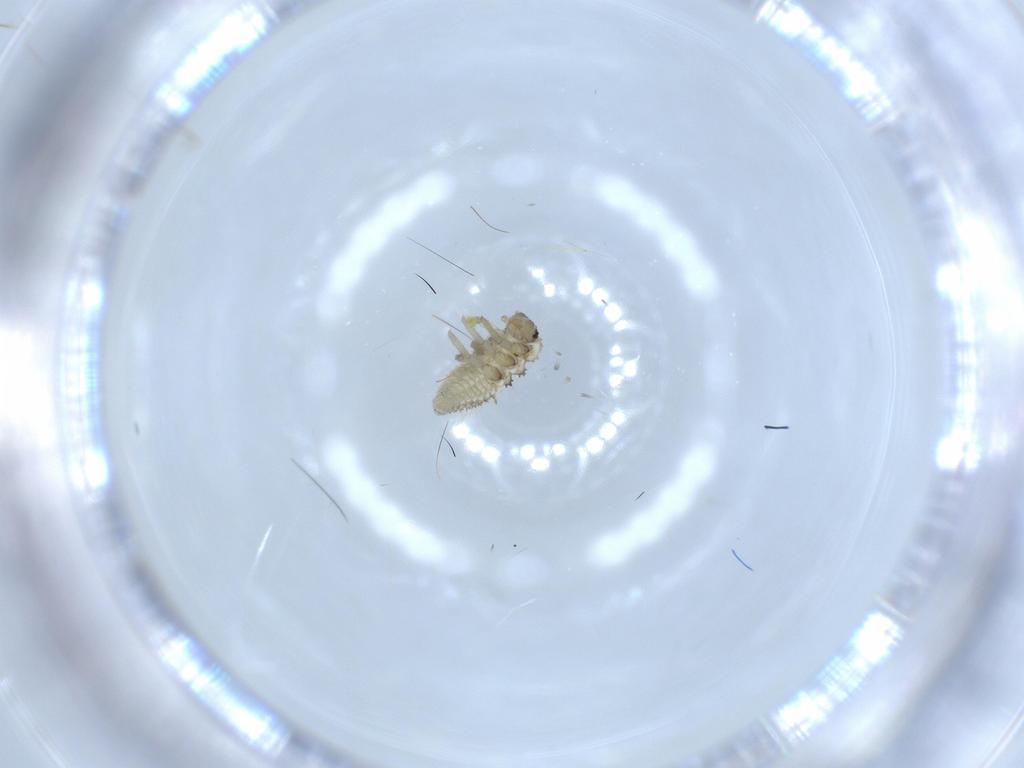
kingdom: Animalia
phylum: Arthropoda
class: Insecta
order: Coleoptera
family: Coccinellidae
